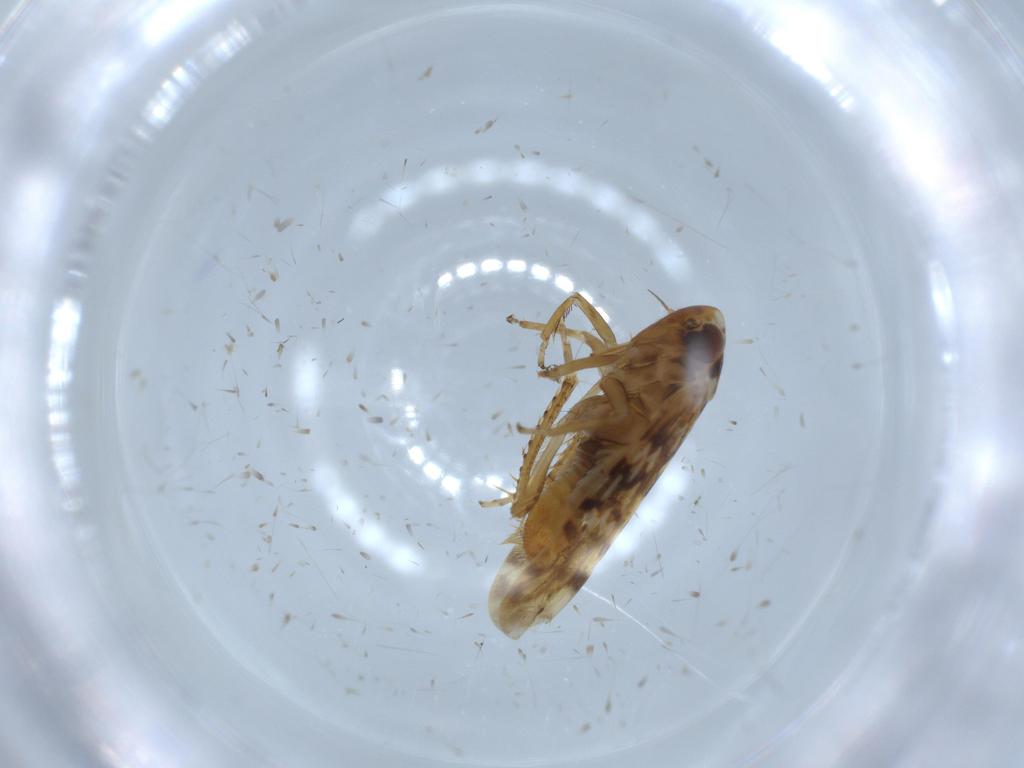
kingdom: Animalia
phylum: Arthropoda
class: Insecta
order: Hemiptera
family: Cicadellidae
